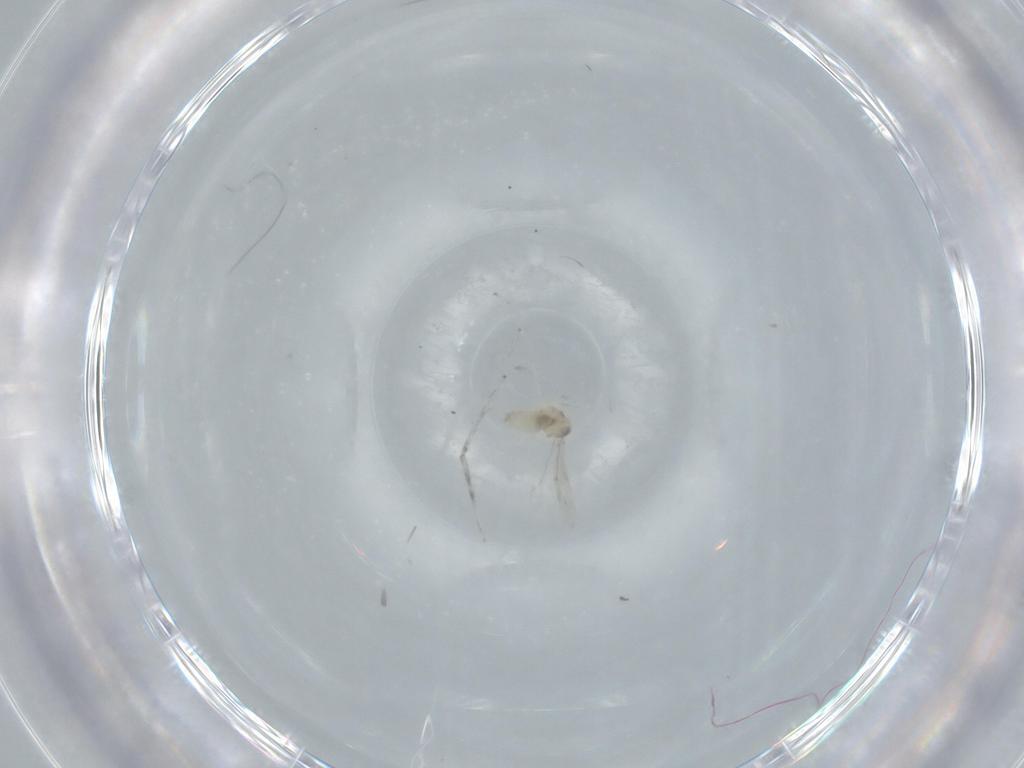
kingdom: Animalia
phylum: Arthropoda
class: Insecta
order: Diptera
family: Cecidomyiidae
